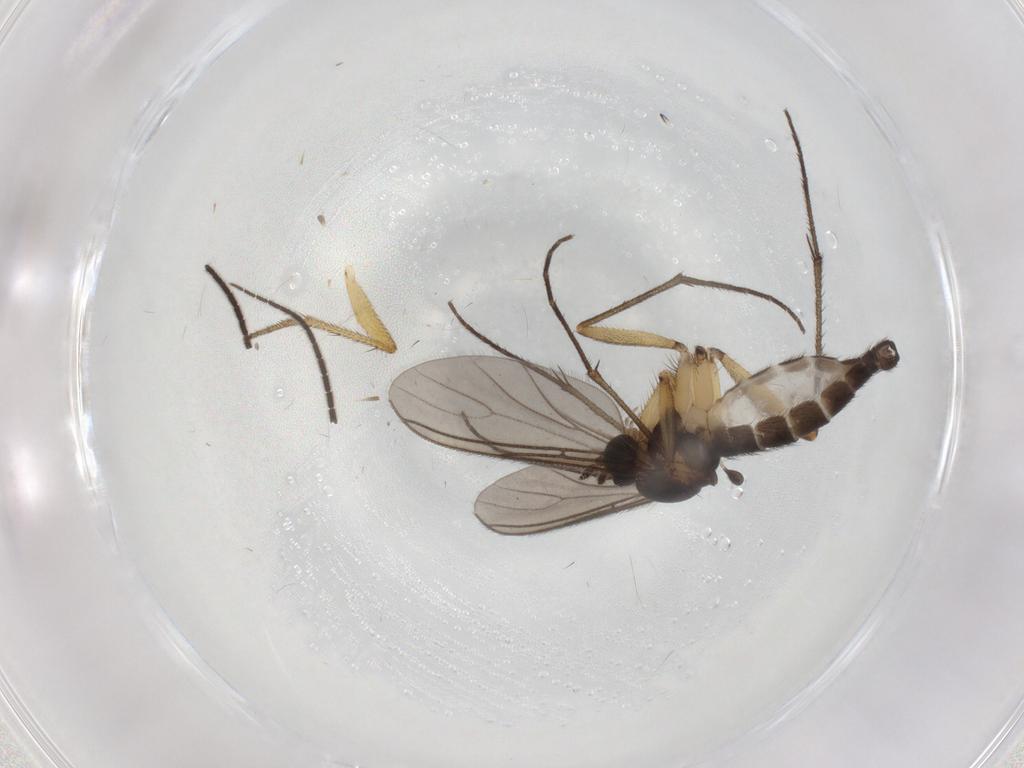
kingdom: Animalia
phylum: Arthropoda
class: Insecta
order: Diptera
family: Sciaridae
